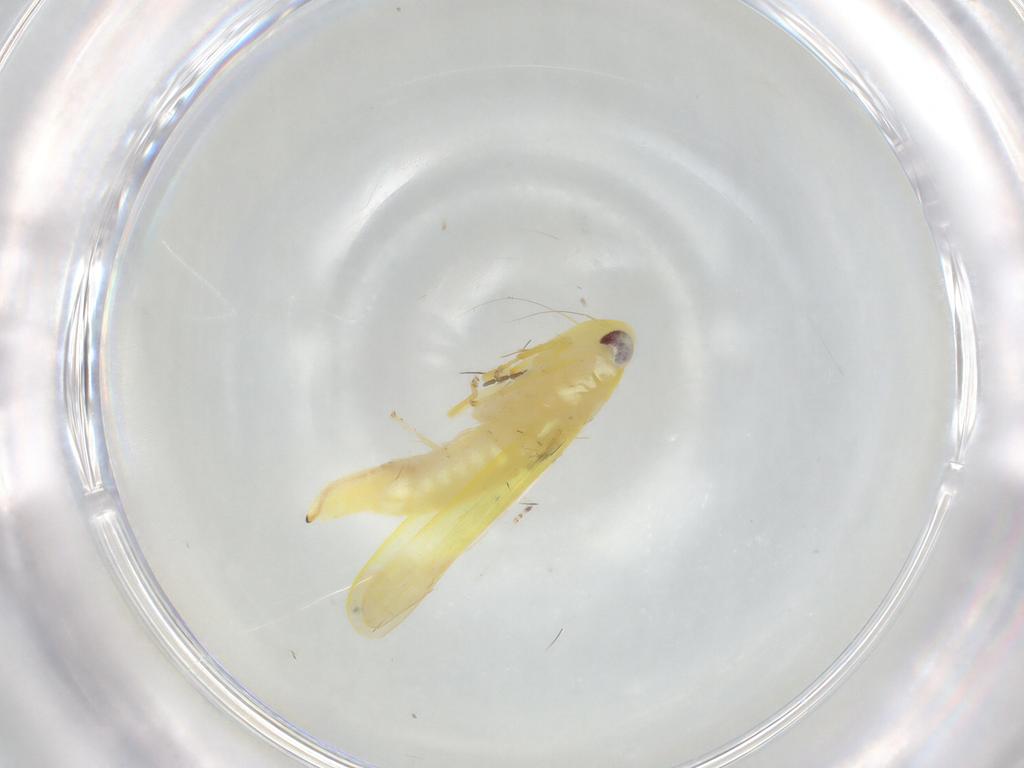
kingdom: Animalia
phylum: Arthropoda
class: Insecta
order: Hemiptera
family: Cicadellidae
